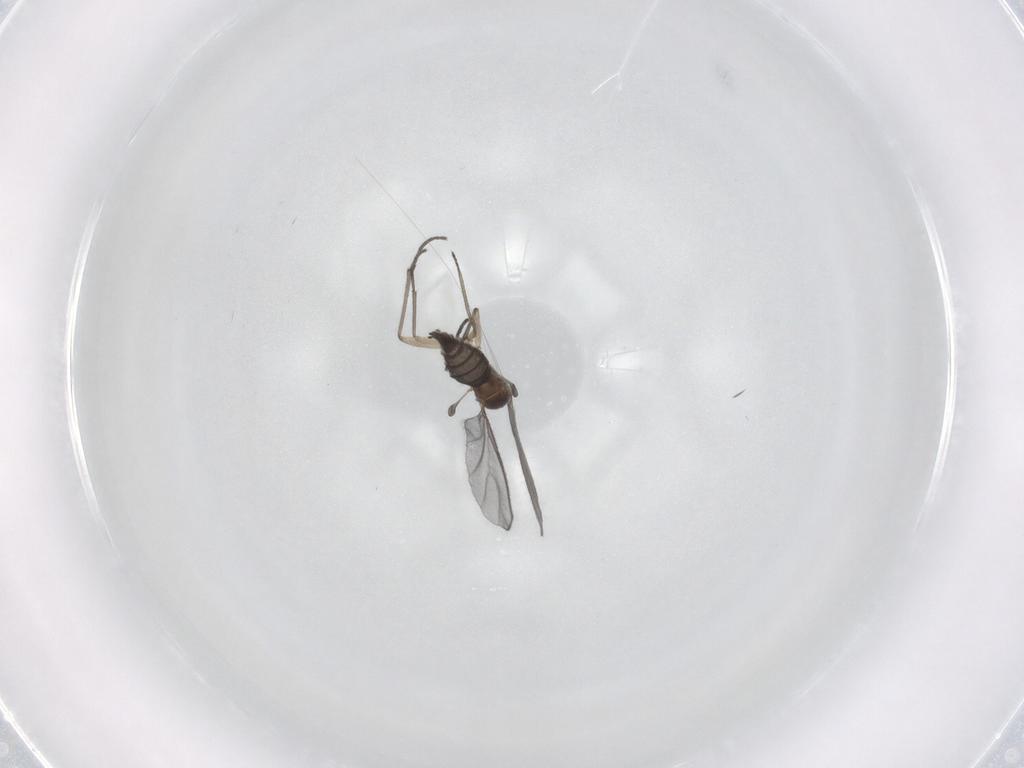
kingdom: Animalia
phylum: Arthropoda
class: Insecta
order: Diptera
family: Sciaridae
